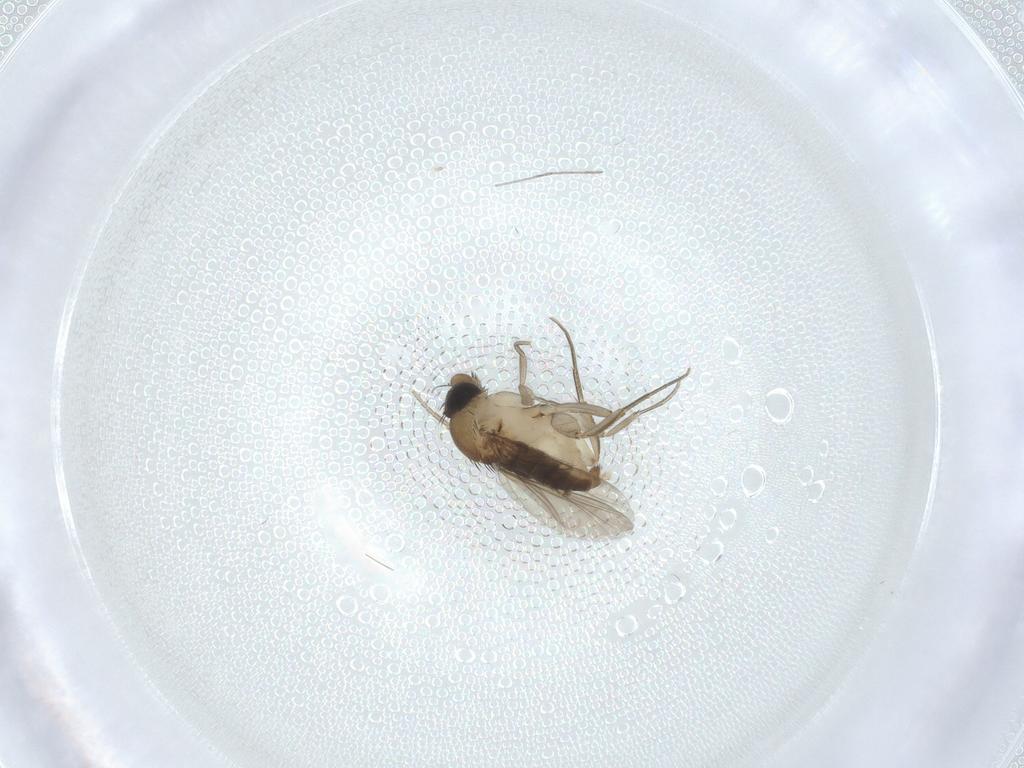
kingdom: Animalia
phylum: Arthropoda
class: Insecta
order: Diptera
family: Phoridae
